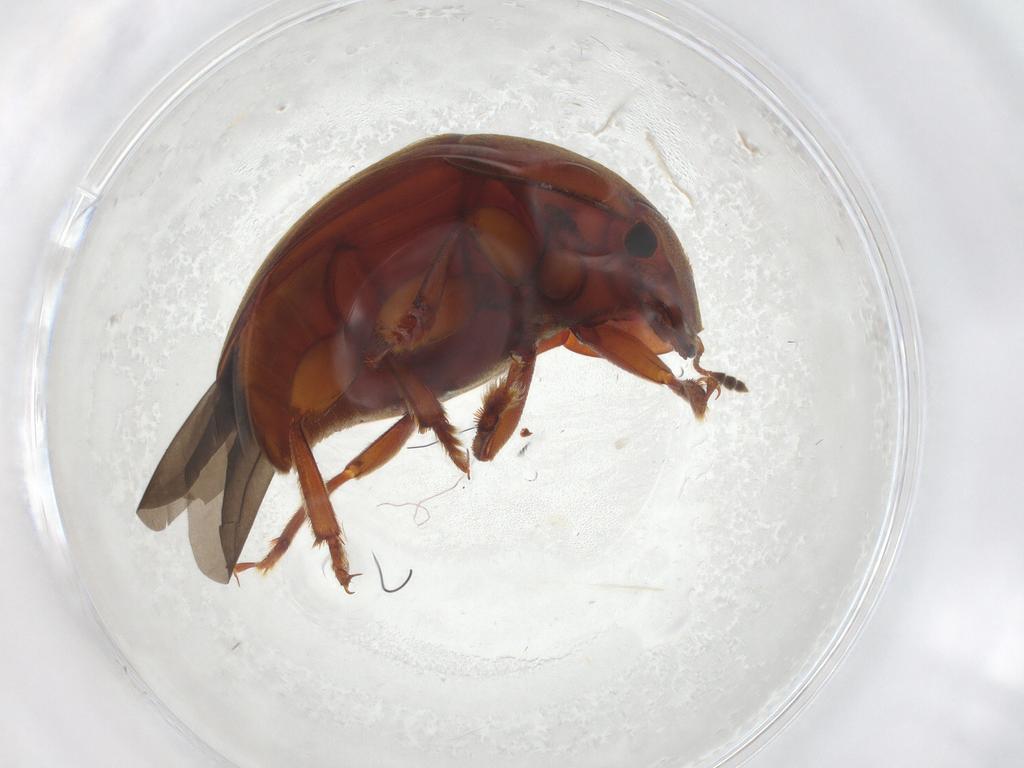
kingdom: Animalia
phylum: Arthropoda
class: Insecta
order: Coleoptera
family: Nitidulidae
